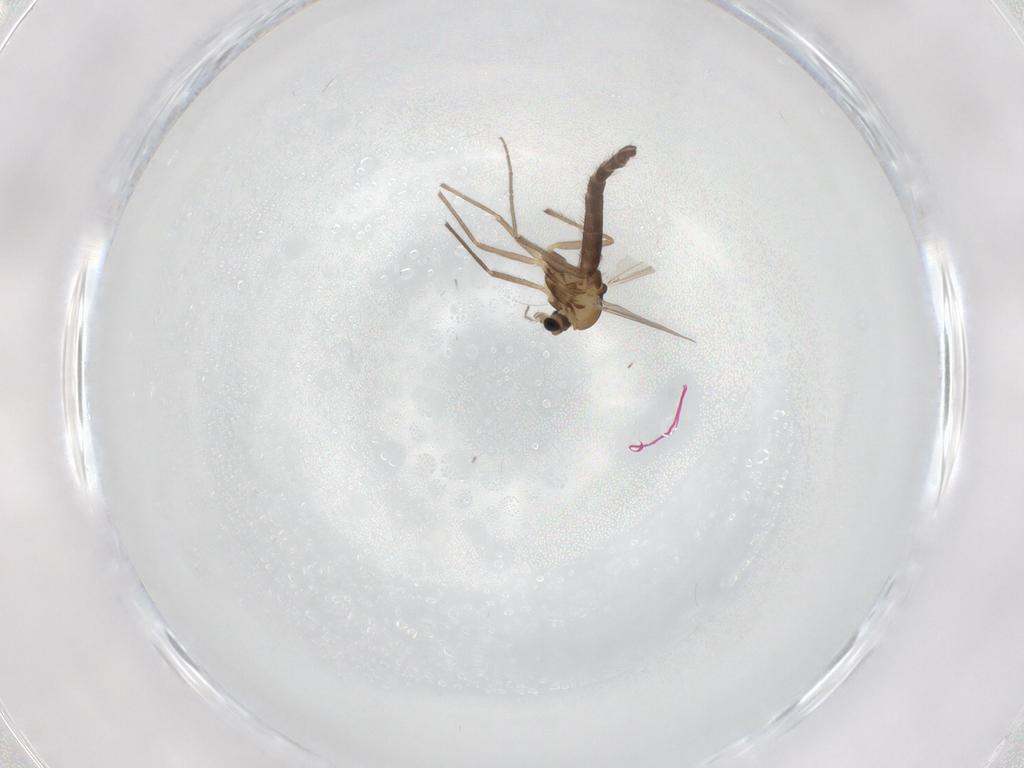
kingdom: Animalia
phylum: Arthropoda
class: Insecta
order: Diptera
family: Chironomidae
